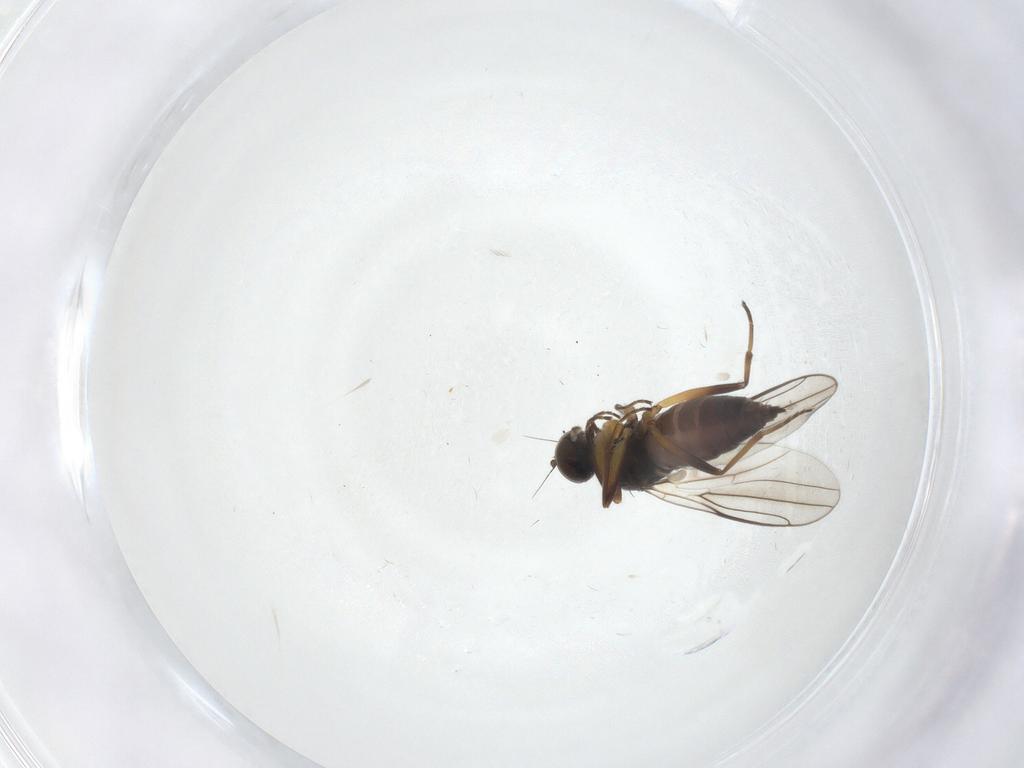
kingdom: Animalia
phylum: Arthropoda
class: Insecta
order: Diptera
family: Hybotidae
